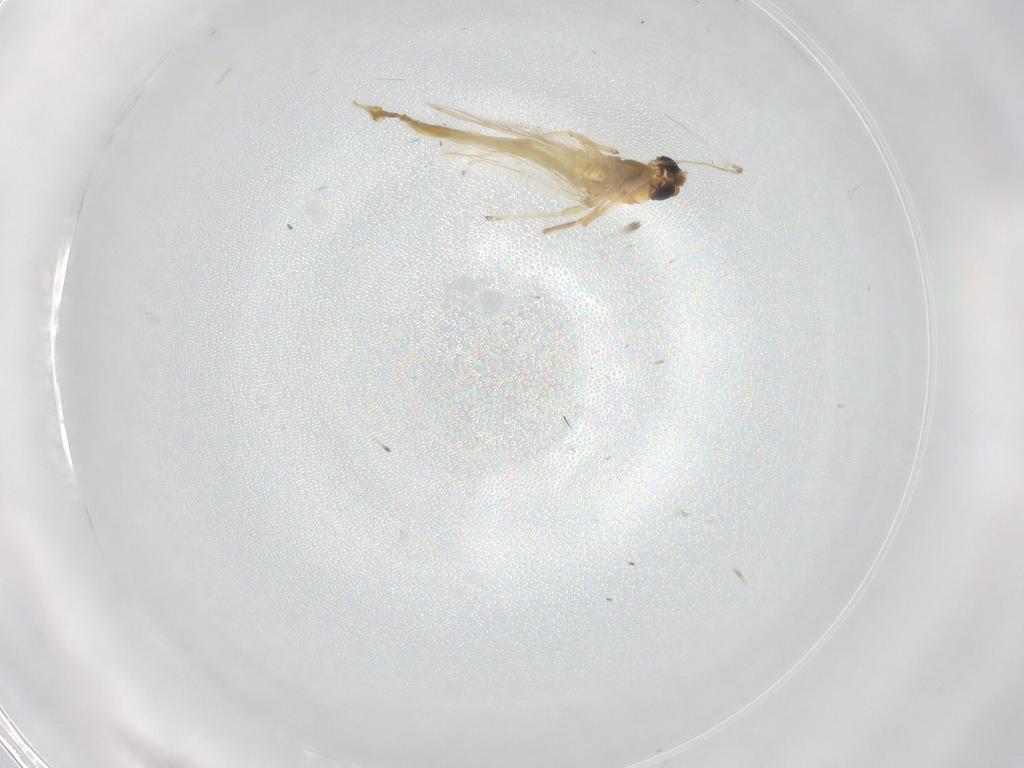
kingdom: Animalia
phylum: Arthropoda
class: Insecta
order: Diptera
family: Chironomidae
